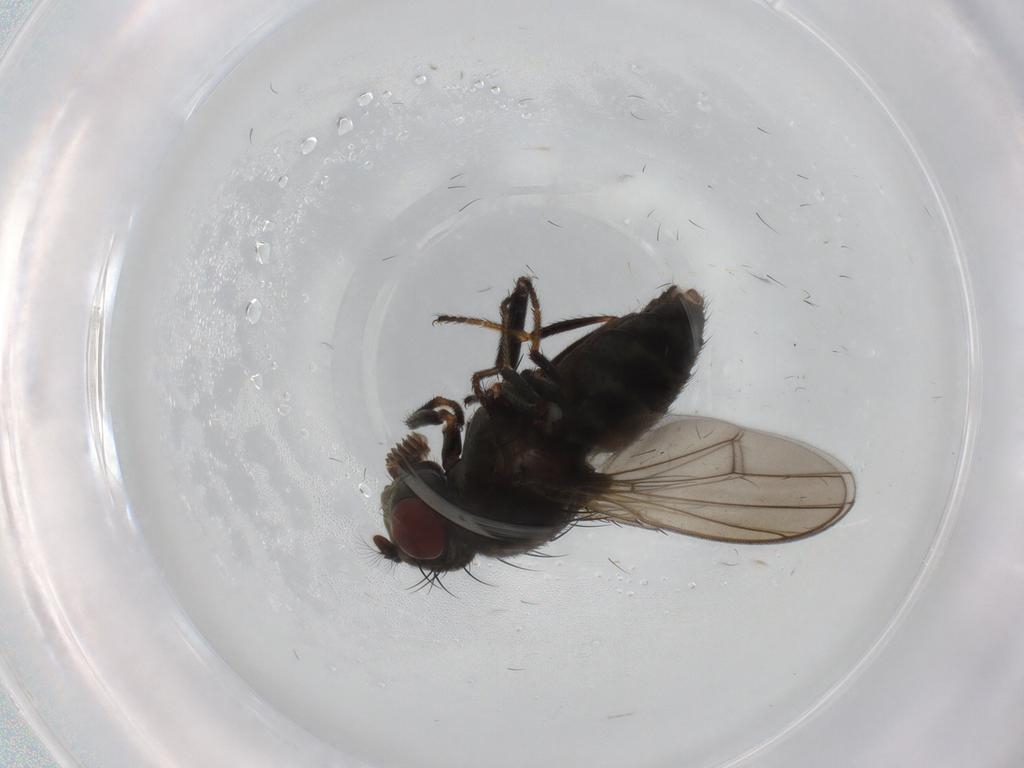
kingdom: Animalia
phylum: Arthropoda
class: Insecta
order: Diptera
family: Ephydridae
